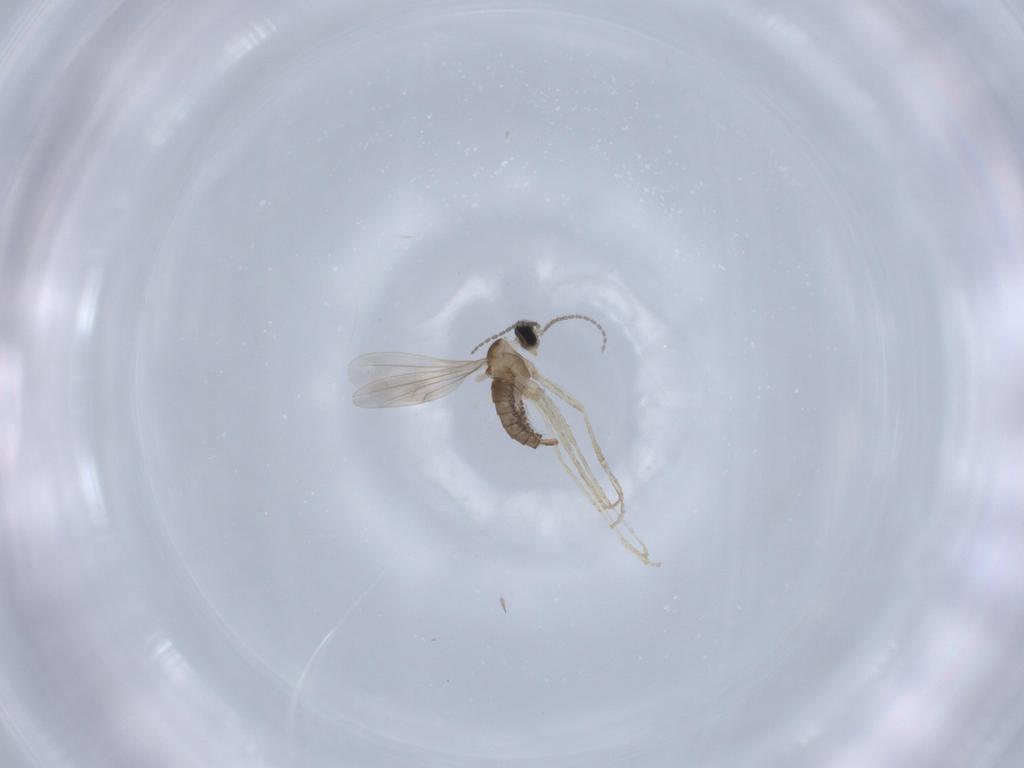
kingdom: Animalia
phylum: Arthropoda
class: Insecta
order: Diptera
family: Cecidomyiidae
